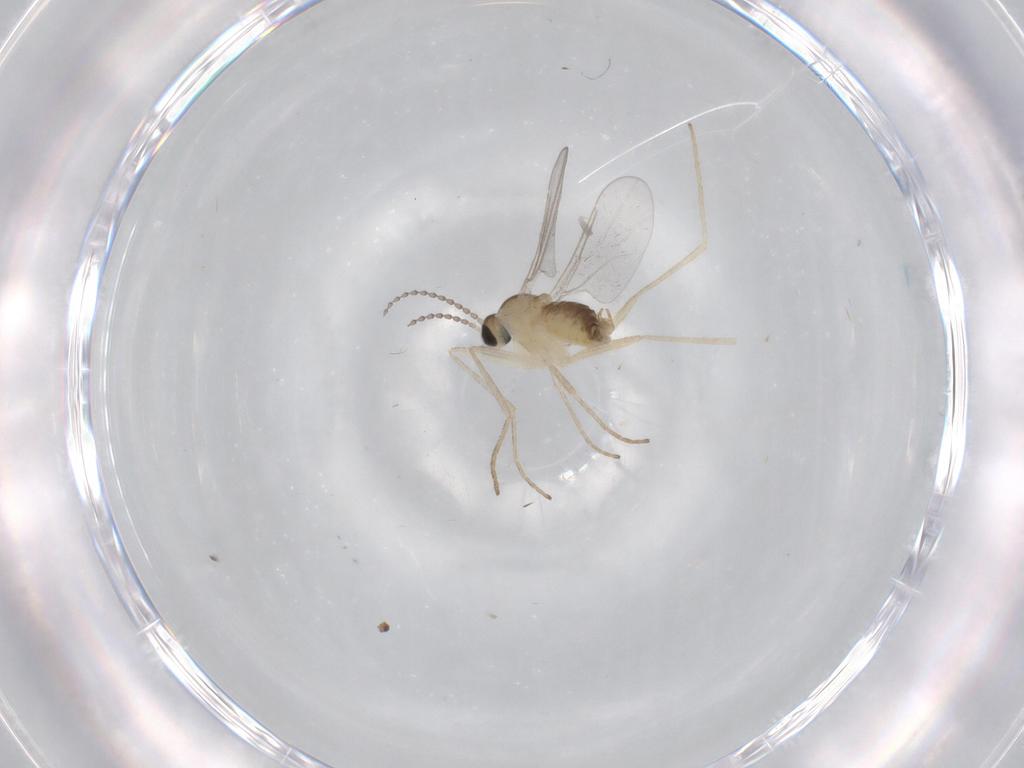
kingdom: Animalia
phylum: Arthropoda
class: Insecta
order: Diptera
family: Cecidomyiidae
